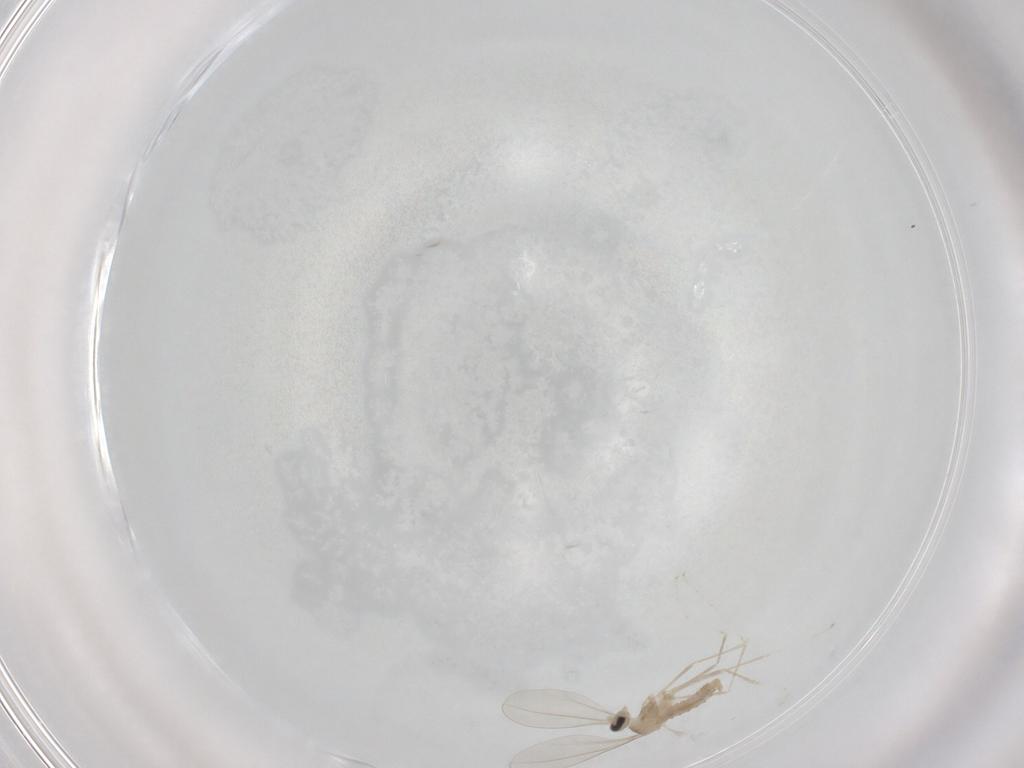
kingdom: Animalia
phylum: Arthropoda
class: Insecta
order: Diptera
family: Cecidomyiidae
